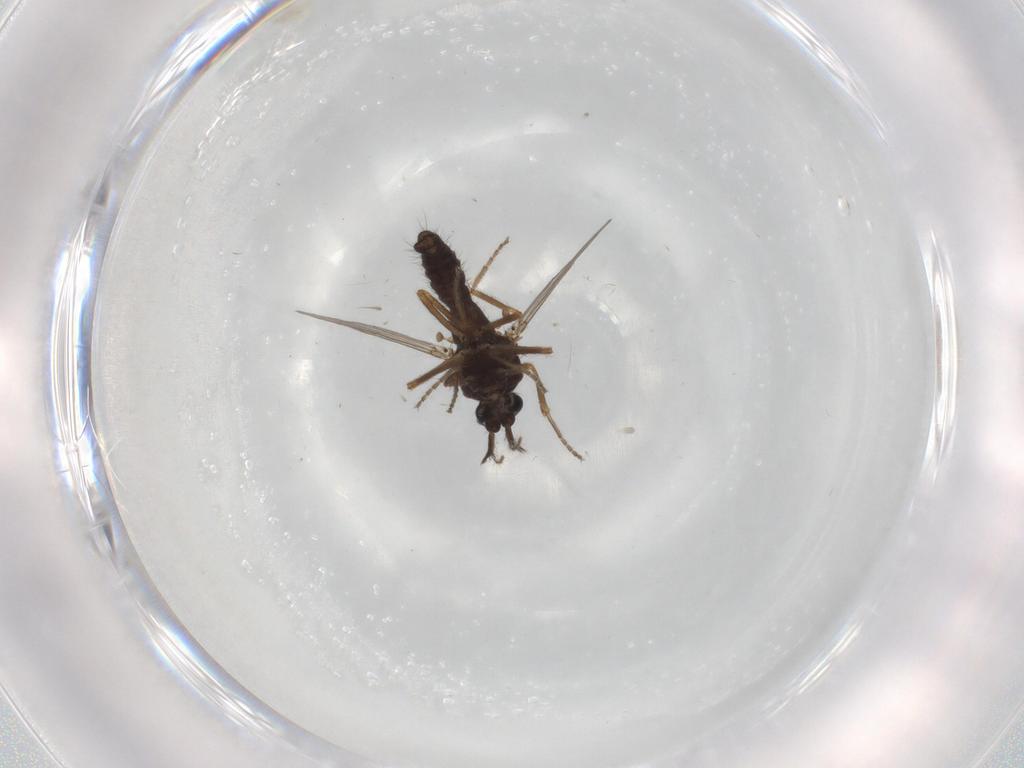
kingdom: Animalia
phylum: Arthropoda
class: Insecta
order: Diptera
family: Ceratopogonidae
